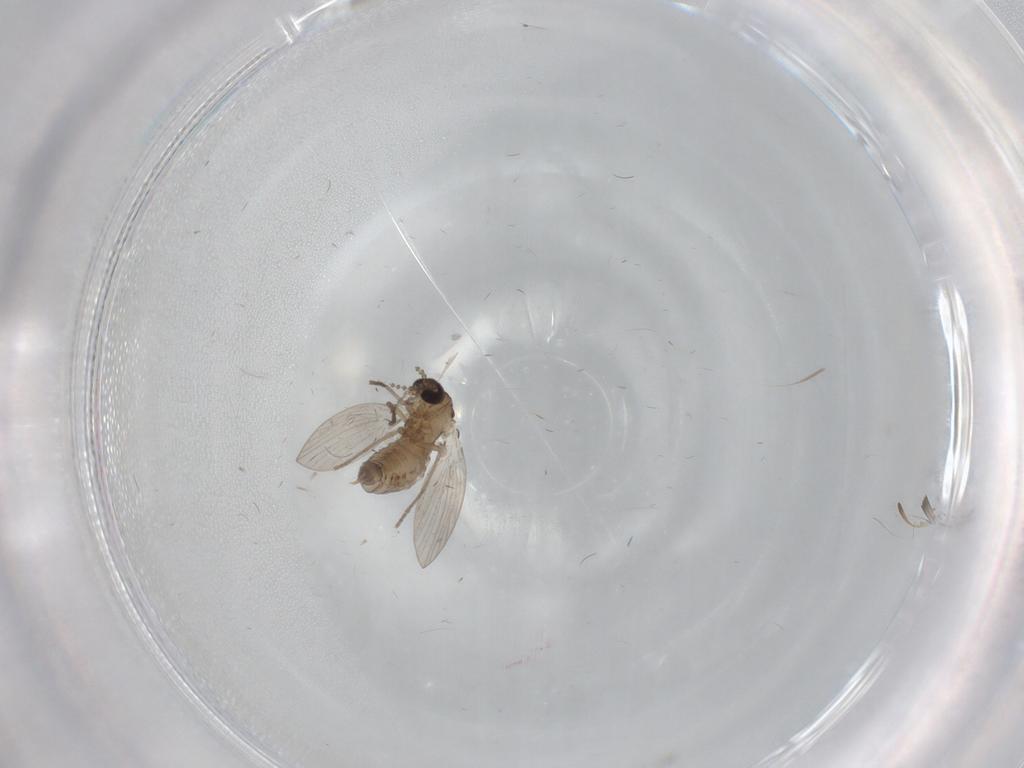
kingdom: Animalia
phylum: Arthropoda
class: Insecta
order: Diptera
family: Psychodidae
